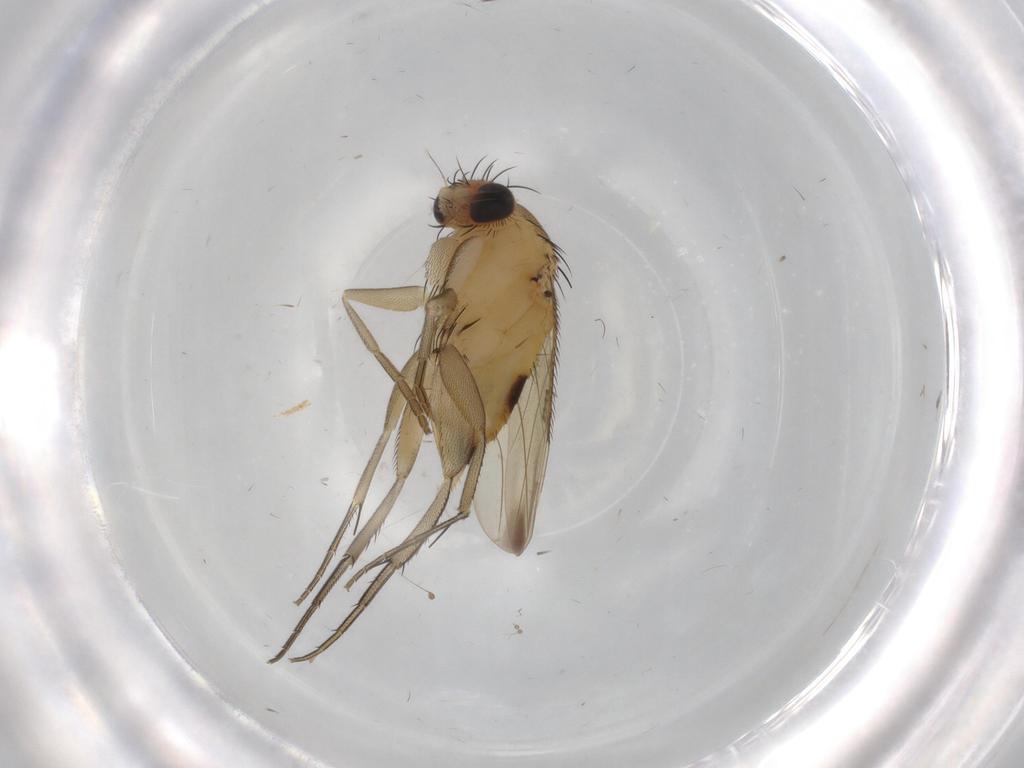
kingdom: Animalia
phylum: Arthropoda
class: Insecta
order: Diptera
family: Phoridae
